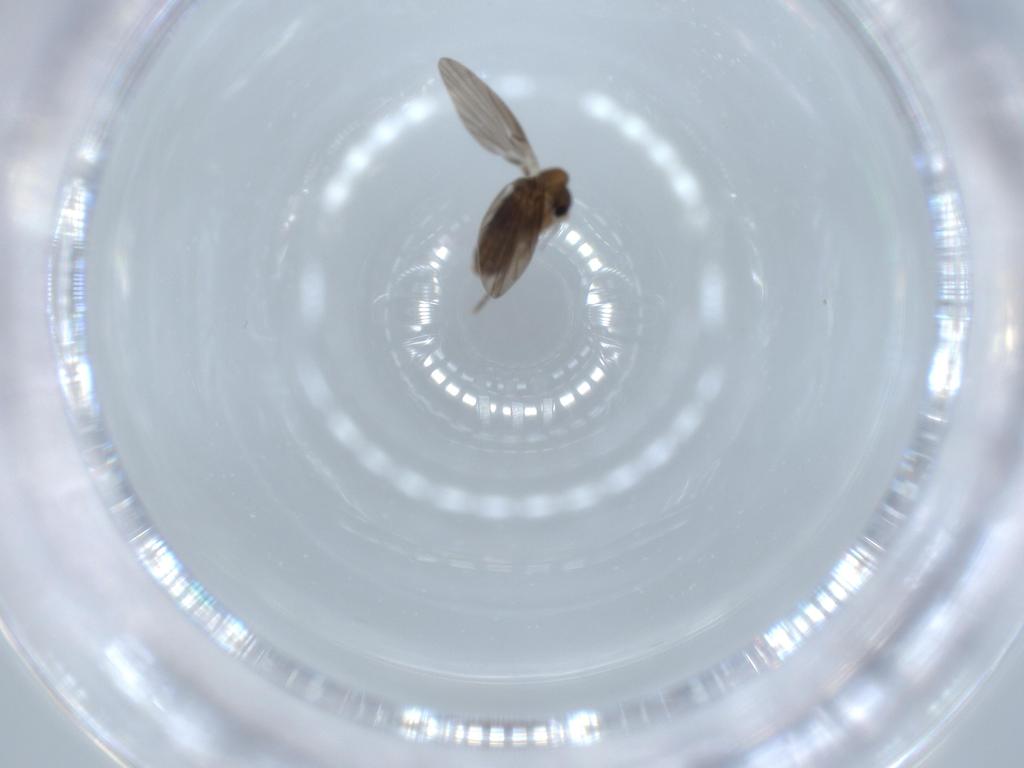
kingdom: Animalia
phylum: Arthropoda
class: Insecta
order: Diptera
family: Psychodidae
